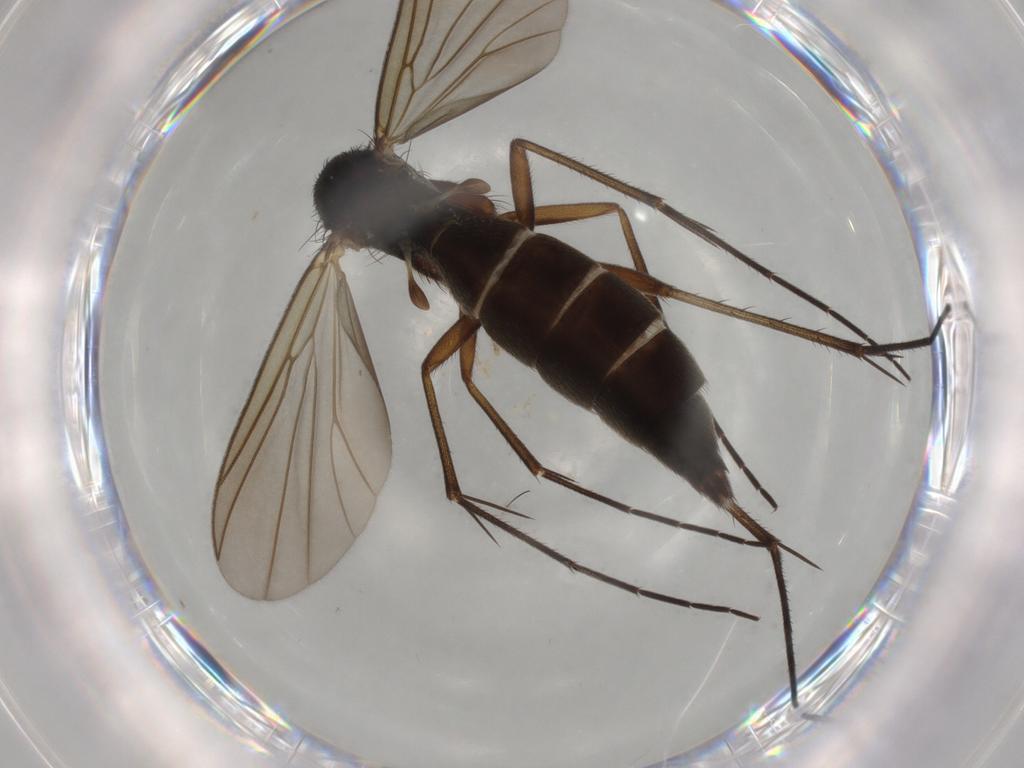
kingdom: Animalia
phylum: Arthropoda
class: Insecta
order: Diptera
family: Mycetophilidae
